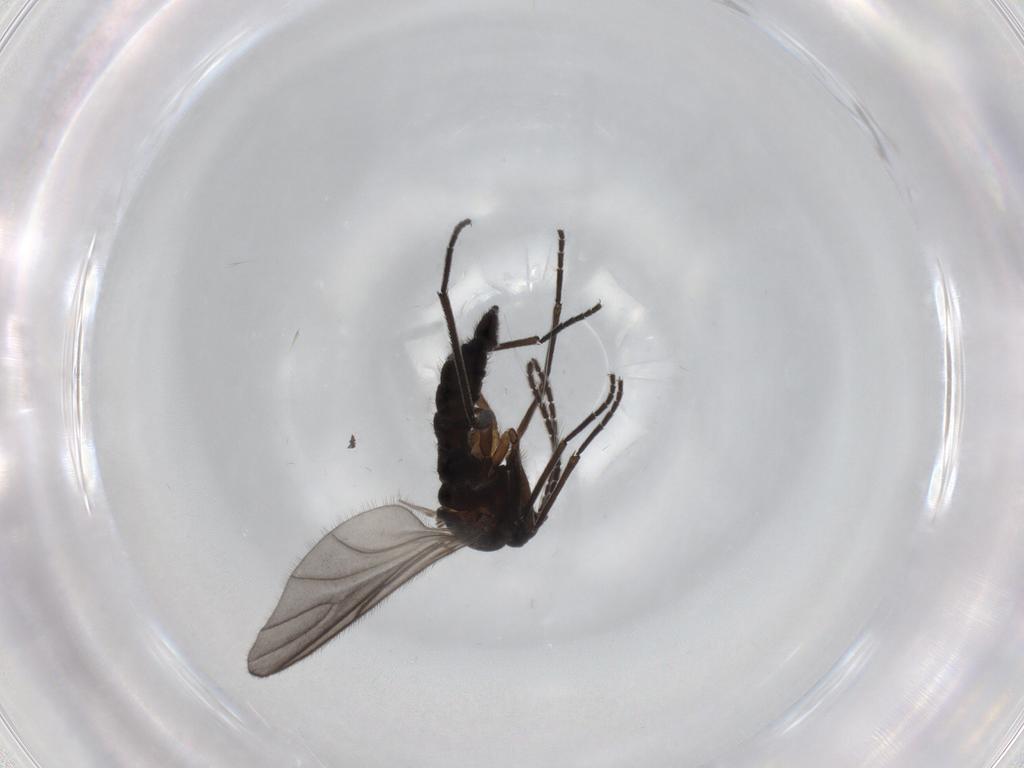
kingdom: Animalia
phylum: Arthropoda
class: Insecta
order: Diptera
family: Sciaridae
